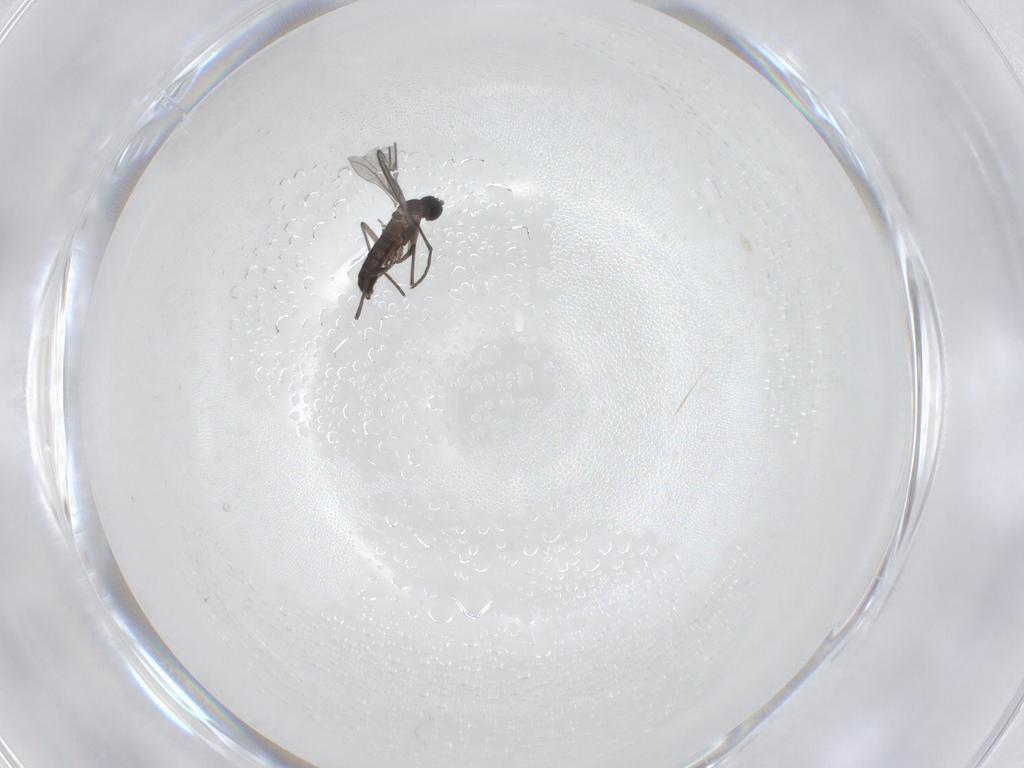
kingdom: Animalia
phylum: Arthropoda
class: Insecta
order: Diptera
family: Chironomidae
